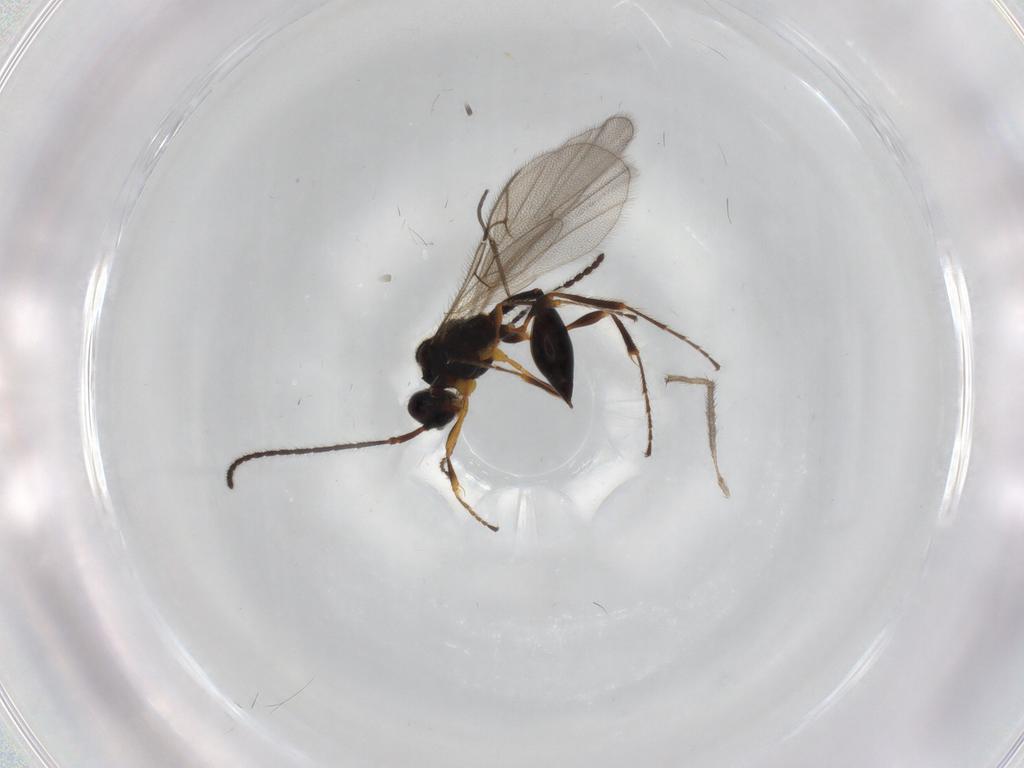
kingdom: Animalia
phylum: Arthropoda
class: Insecta
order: Hymenoptera
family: Diapriidae
